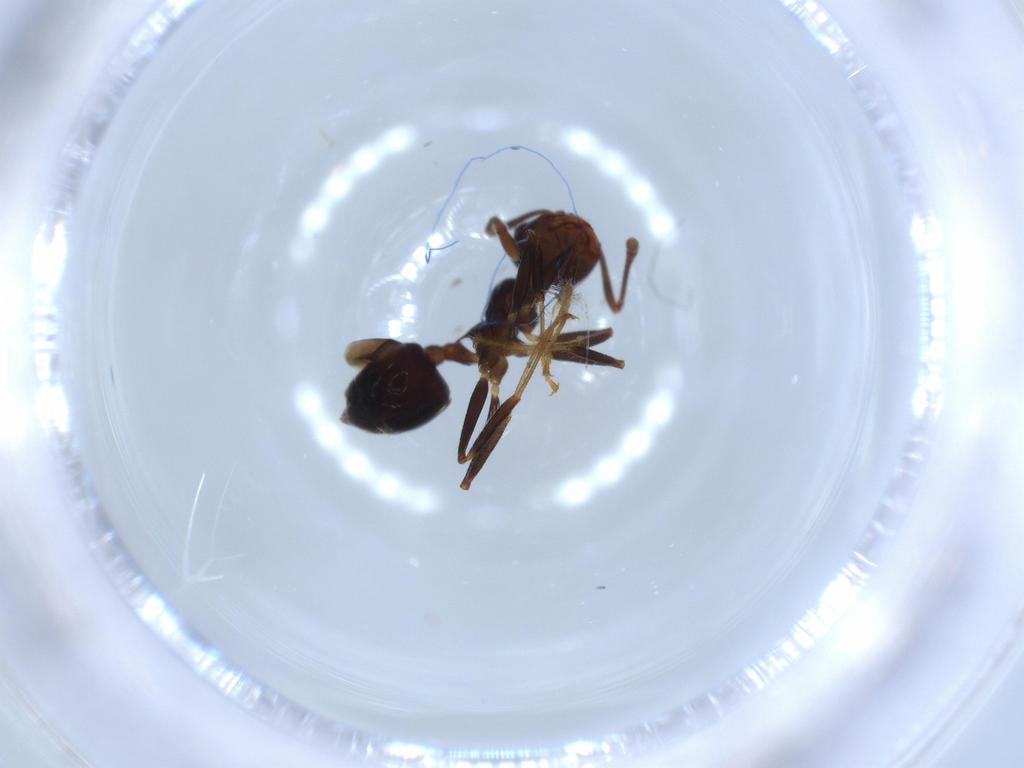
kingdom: Animalia
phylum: Arthropoda
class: Insecta
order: Hymenoptera
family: Formicidae
